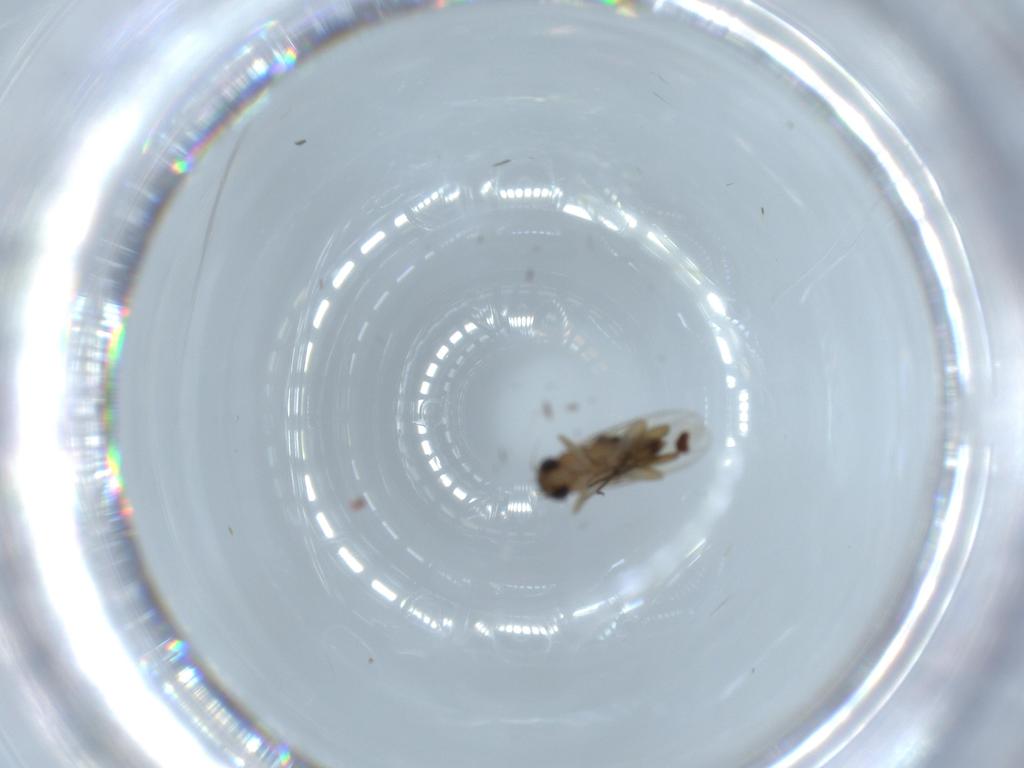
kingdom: Animalia
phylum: Arthropoda
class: Insecta
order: Diptera
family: Phoridae
